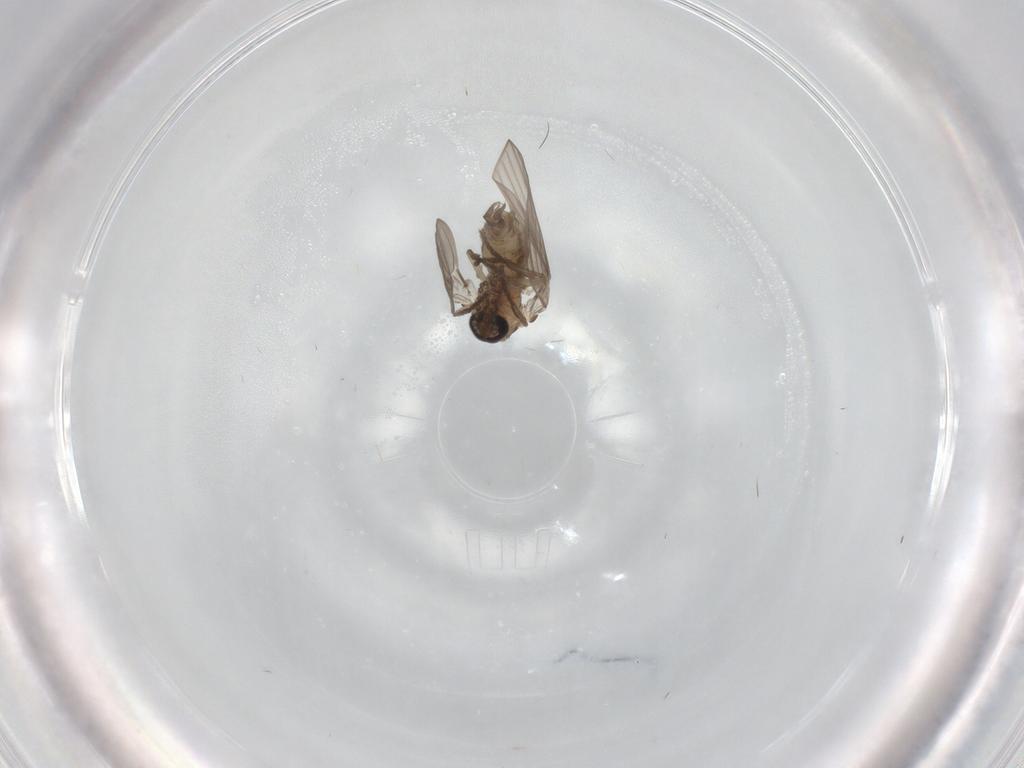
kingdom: Animalia
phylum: Arthropoda
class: Insecta
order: Diptera
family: Psychodidae
